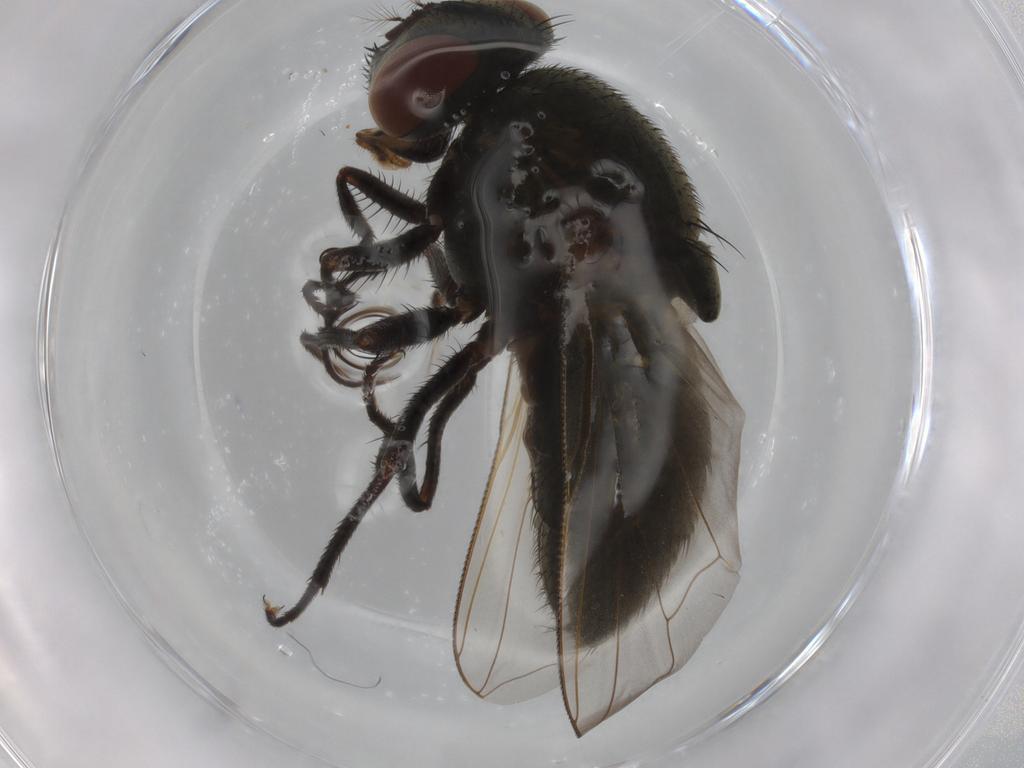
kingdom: Animalia
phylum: Arthropoda
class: Insecta
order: Diptera
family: Muscidae
